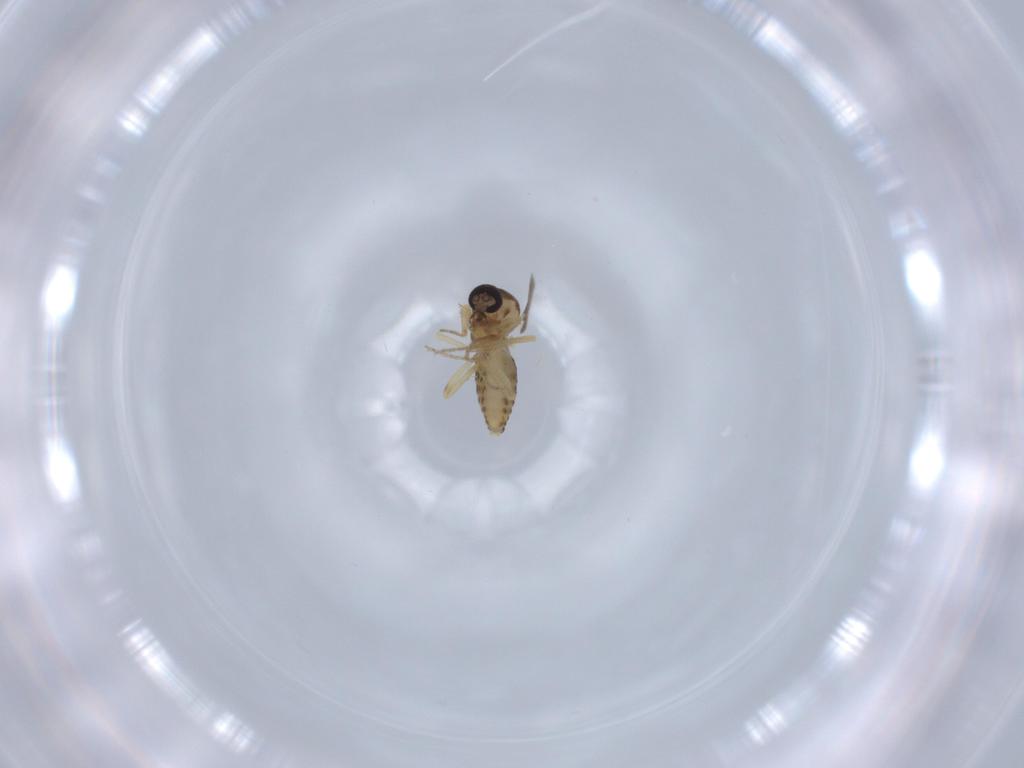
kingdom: Animalia
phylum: Arthropoda
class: Insecta
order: Diptera
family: Ceratopogonidae
